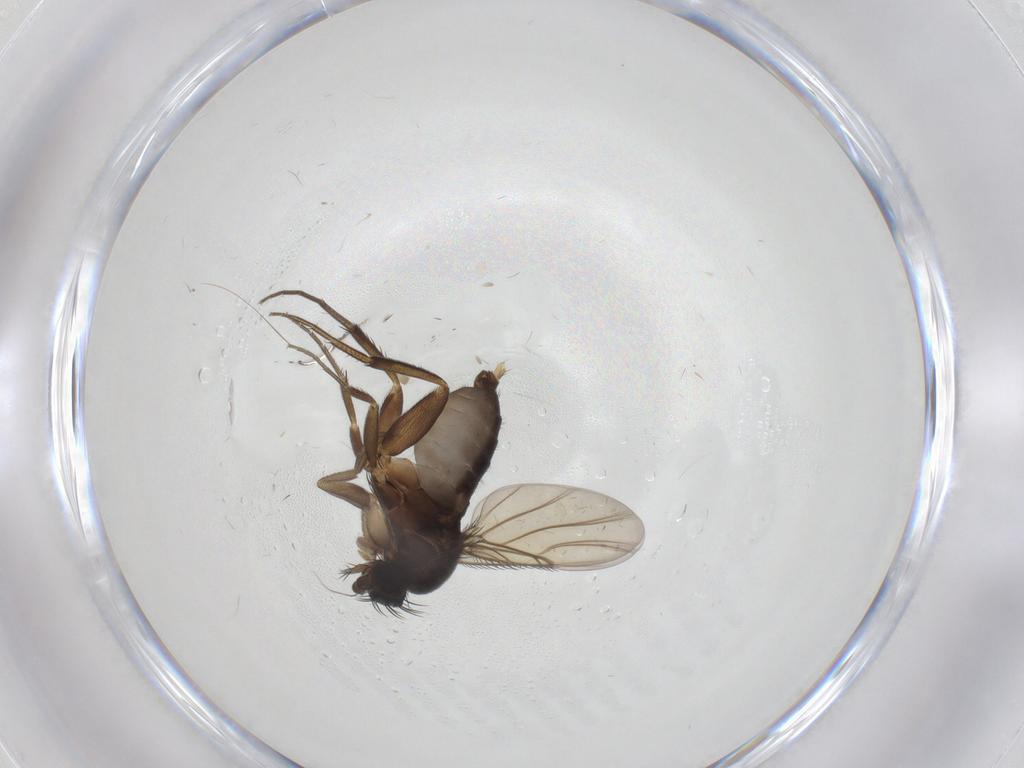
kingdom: Animalia
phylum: Arthropoda
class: Insecta
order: Diptera
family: Phoridae
